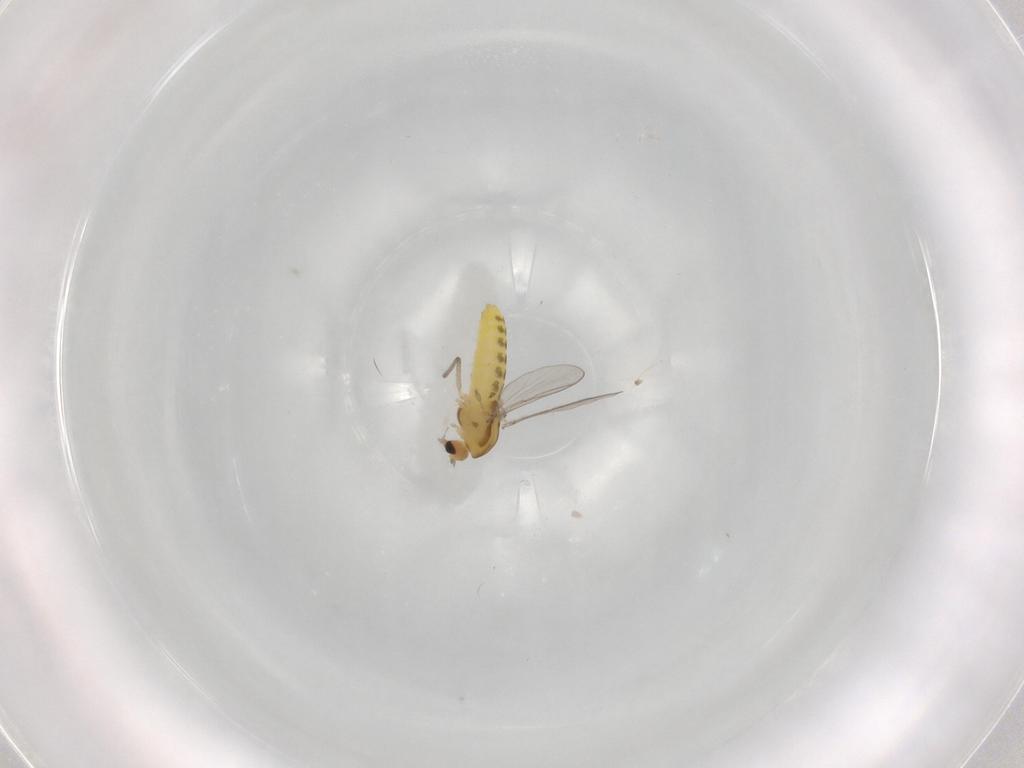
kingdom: Animalia
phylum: Arthropoda
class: Insecta
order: Diptera
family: Chironomidae
